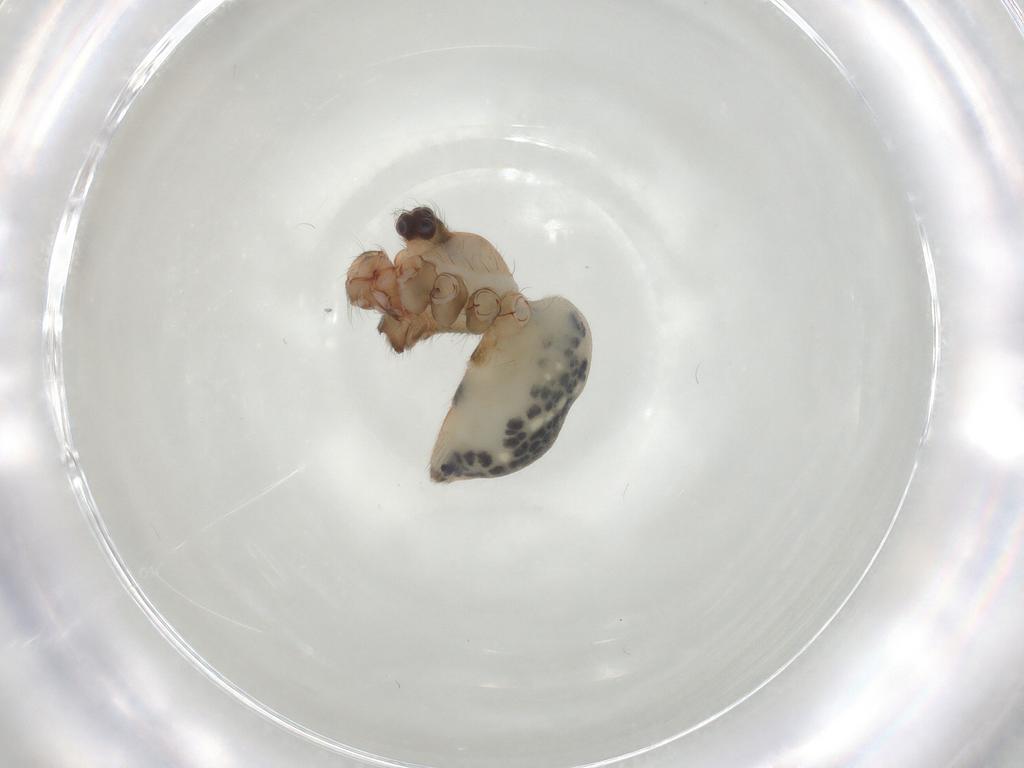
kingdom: Animalia
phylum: Arthropoda
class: Arachnida
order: Araneae
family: Pholcidae
